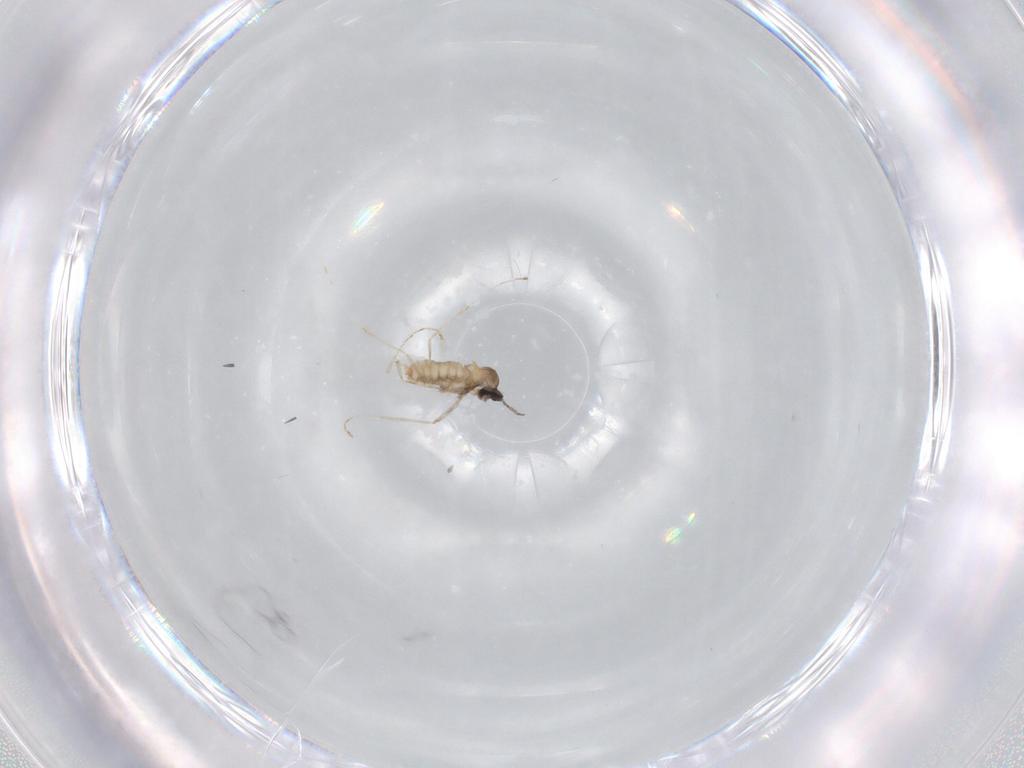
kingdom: Animalia
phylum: Arthropoda
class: Insecta
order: Diptera
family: Cecidomyiidae
